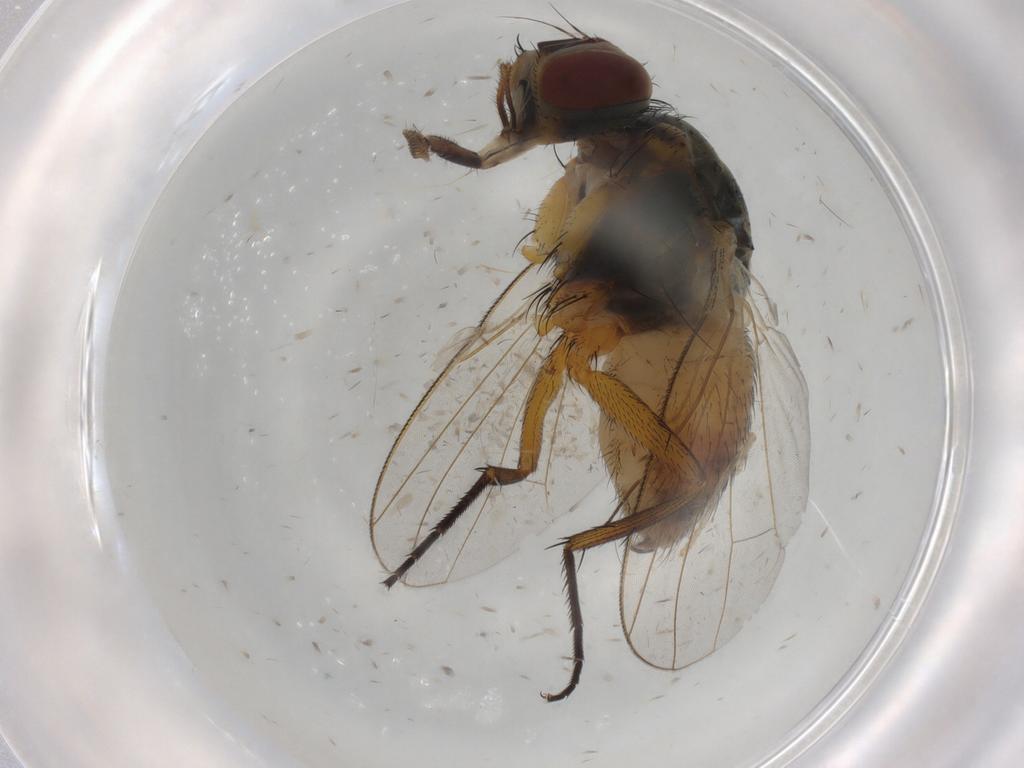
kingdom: Animalia
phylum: Arthropoda
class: Insecta
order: Diptera
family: Muscidae
